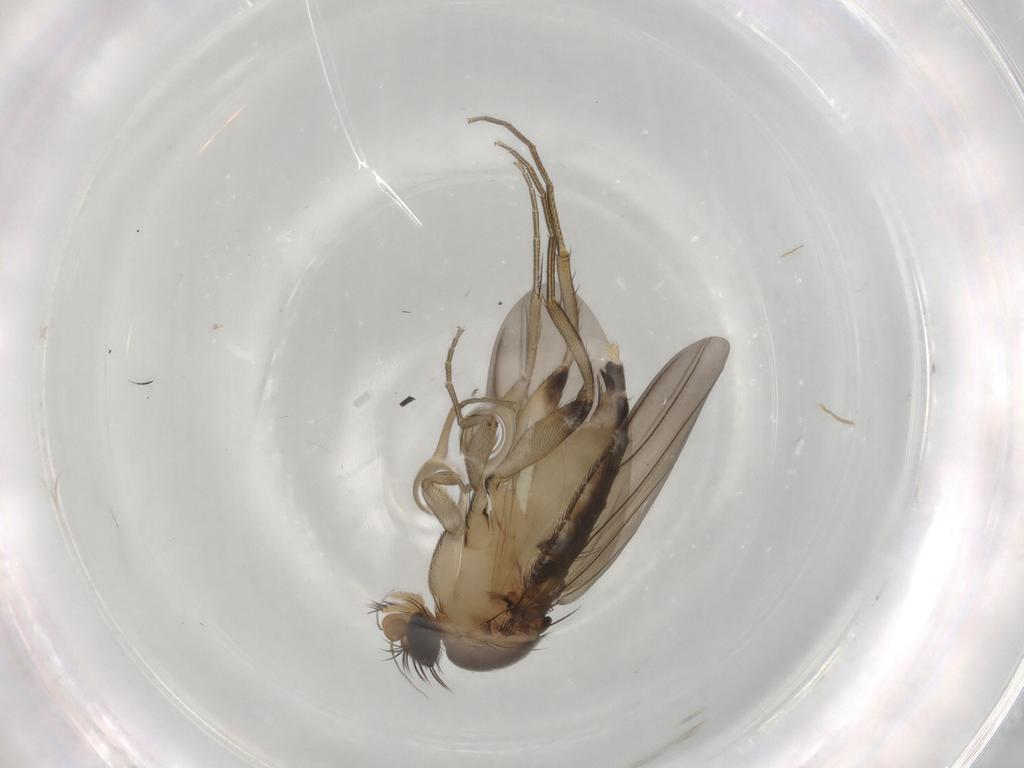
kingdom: Animalia
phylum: Arthropoda
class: Insecta
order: Diptera
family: Phoridae
